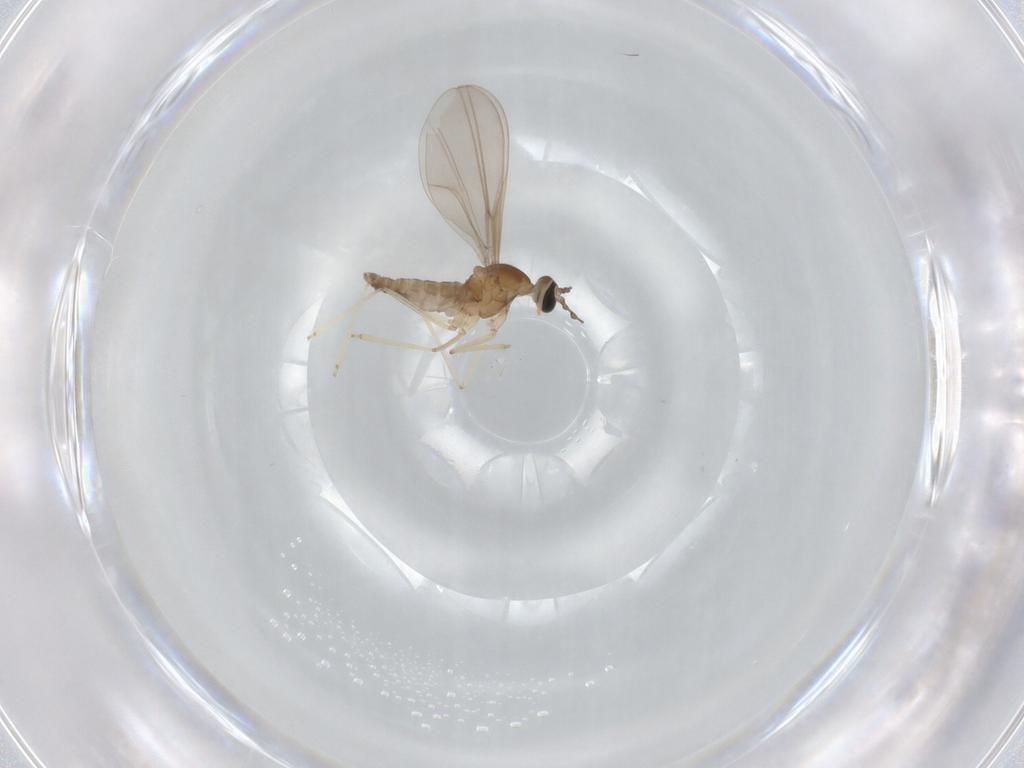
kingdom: Animalia
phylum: Arthropoda
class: Insecta
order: Diptera
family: Cecidomyiidae
